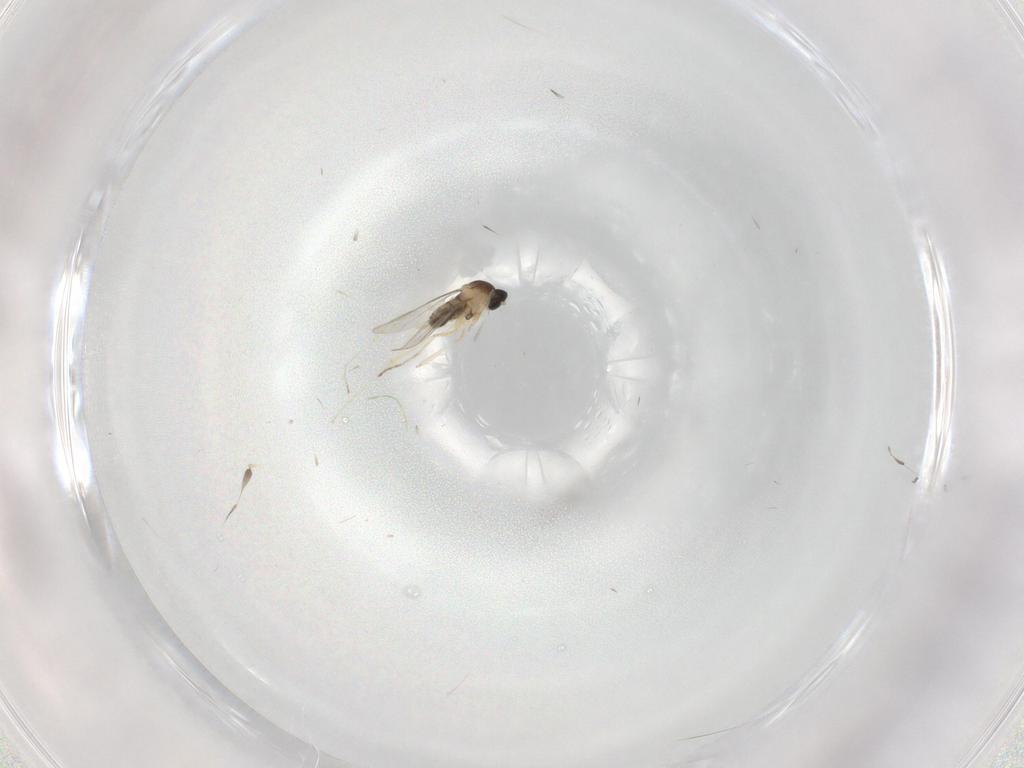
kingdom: Animalia
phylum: Arthropoda
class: Insecta
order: Diptera
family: Cecidomyiidae
